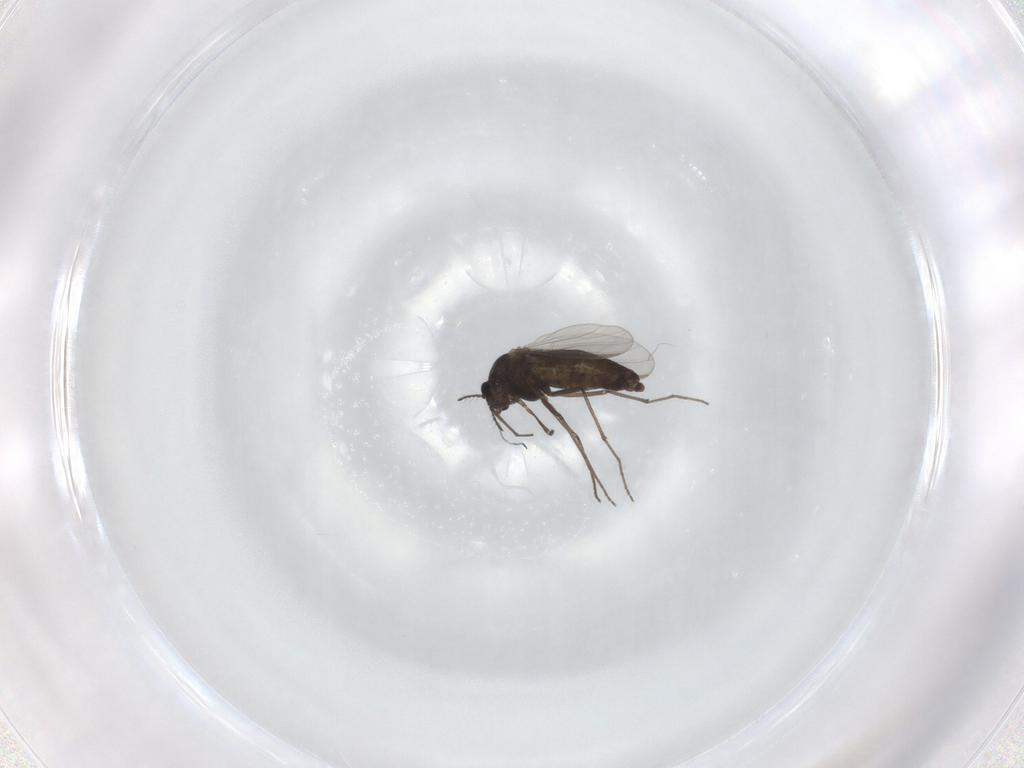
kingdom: Animalia
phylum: Arthropoda
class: Insecta
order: Diptera
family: Chironomidae
